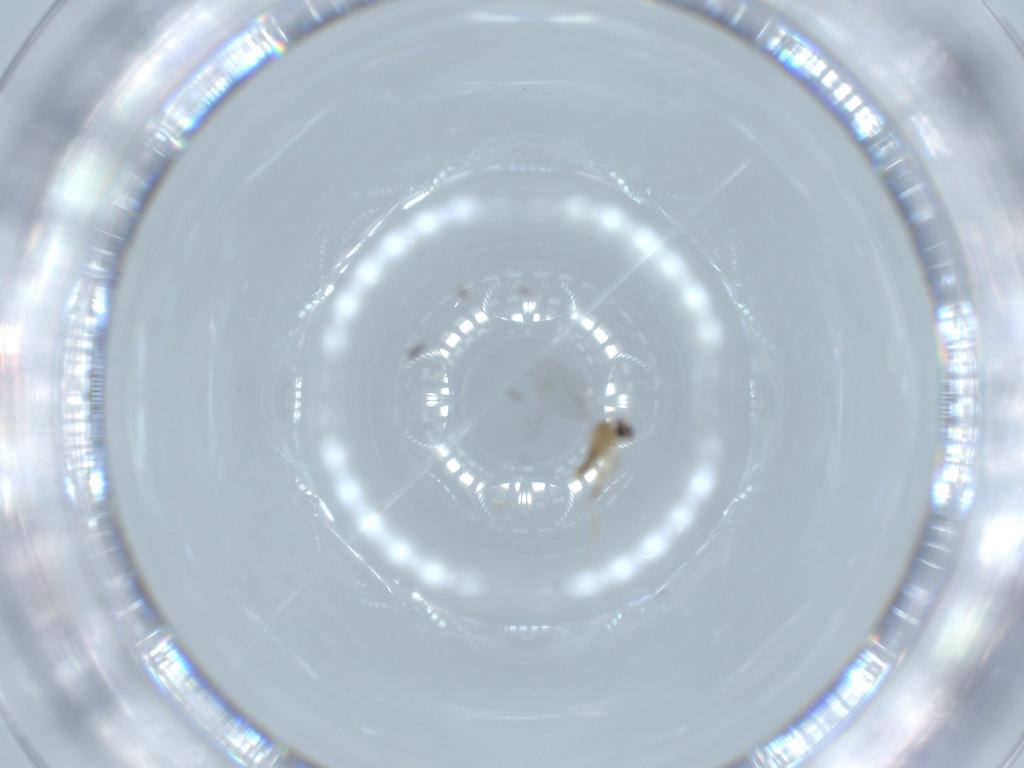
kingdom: Animalia
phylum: Arthropoda
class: Insecta
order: Diptera
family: Cecidomyiidae
